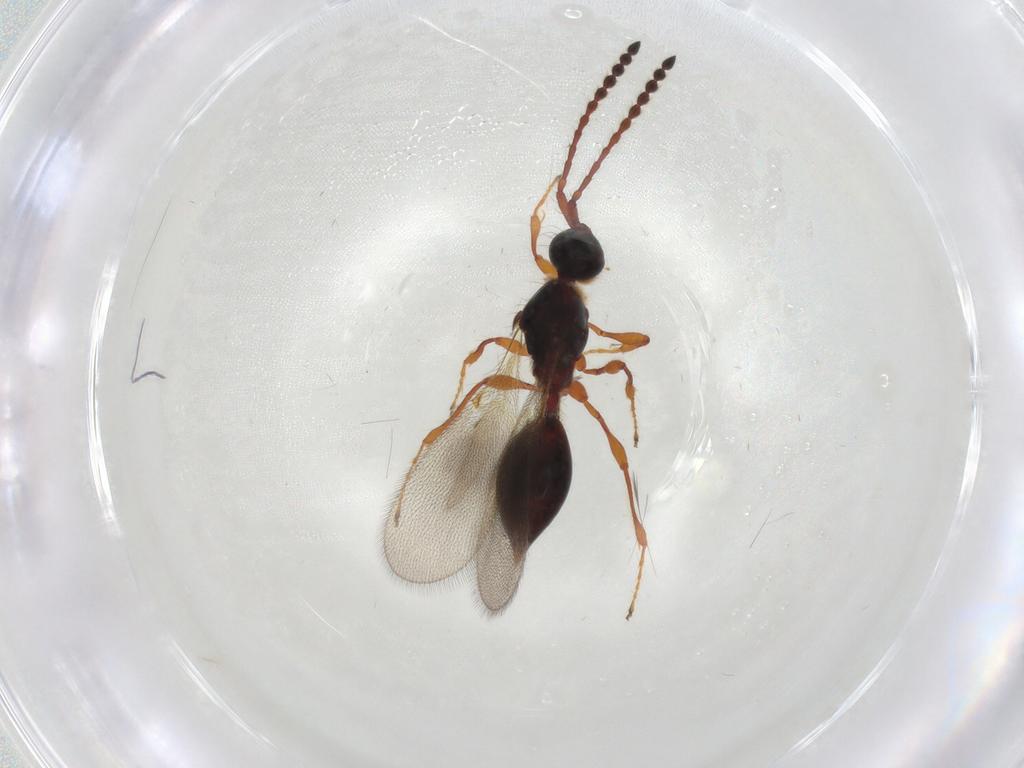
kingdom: Animalia
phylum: Arthropoda
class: Insecta
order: Hymenoptera
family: Diapriidae
